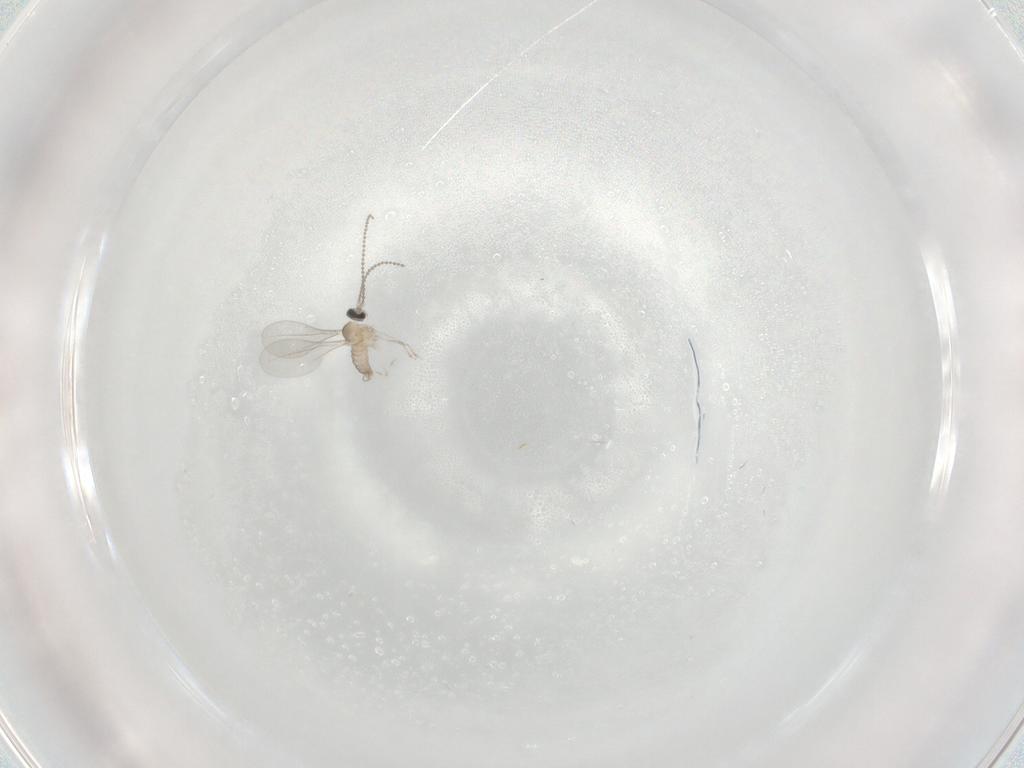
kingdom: Animalia
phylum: Arthropoda
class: Insecta
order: Diptera
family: Cecidomyiidae
